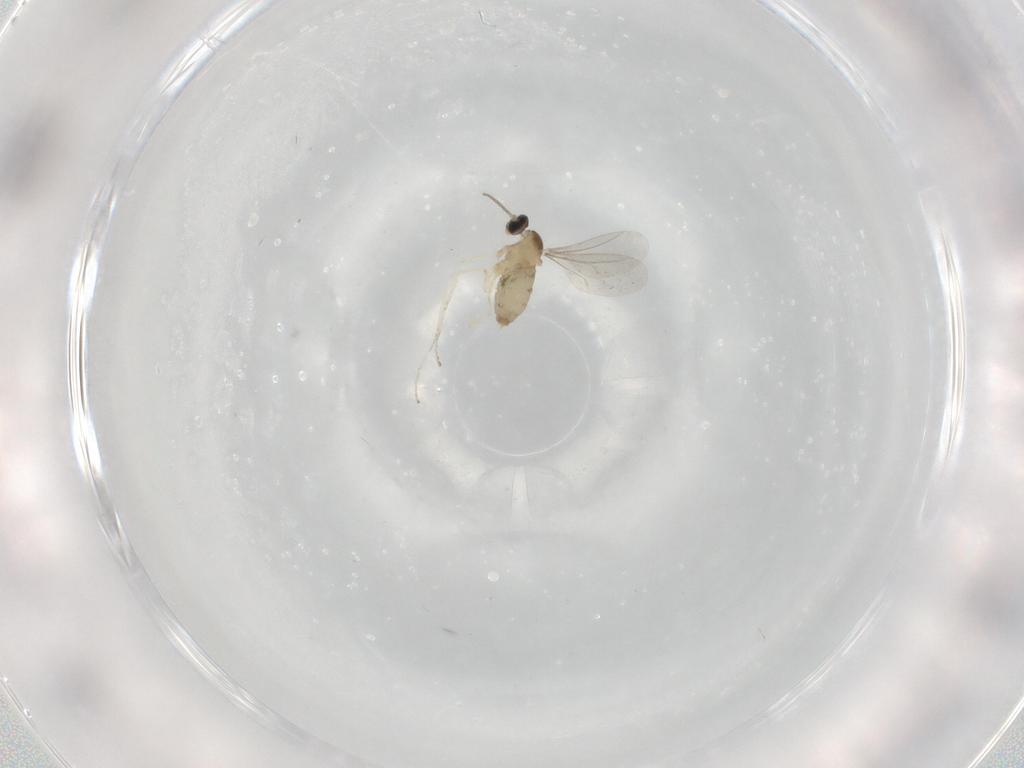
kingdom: Animalia
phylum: Arthropoda
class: Insecta
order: Diptera
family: Cecidomyiidae
